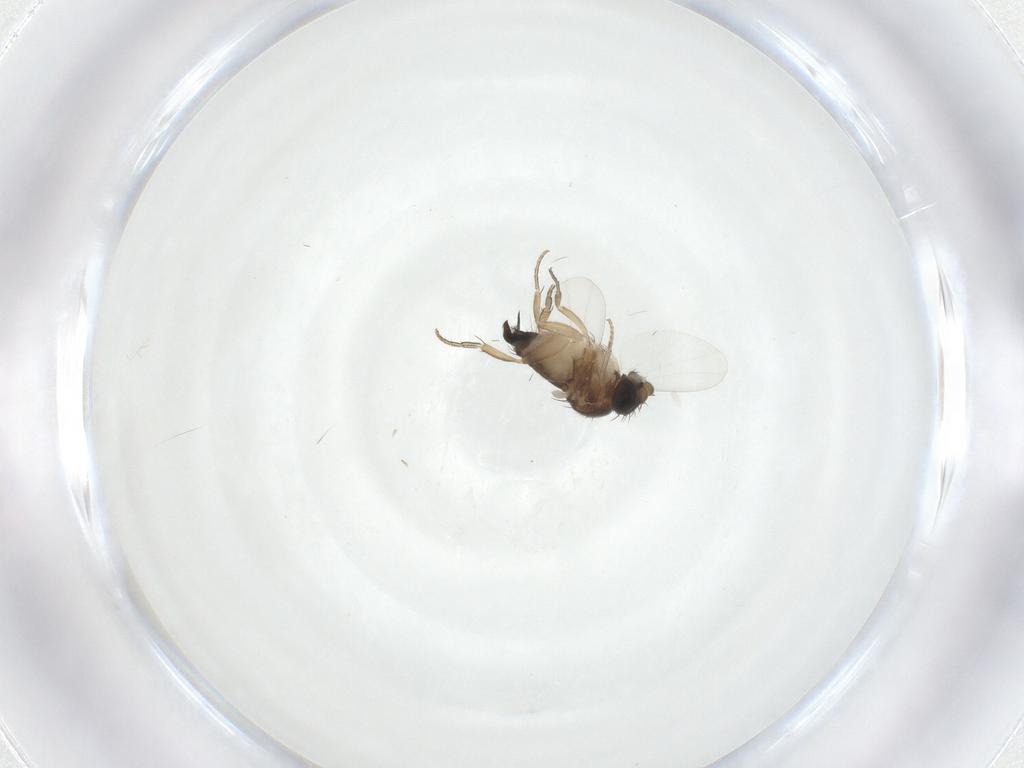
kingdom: Animalia
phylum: Arthropoda
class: Insecta
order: Diptera
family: Phoridae
